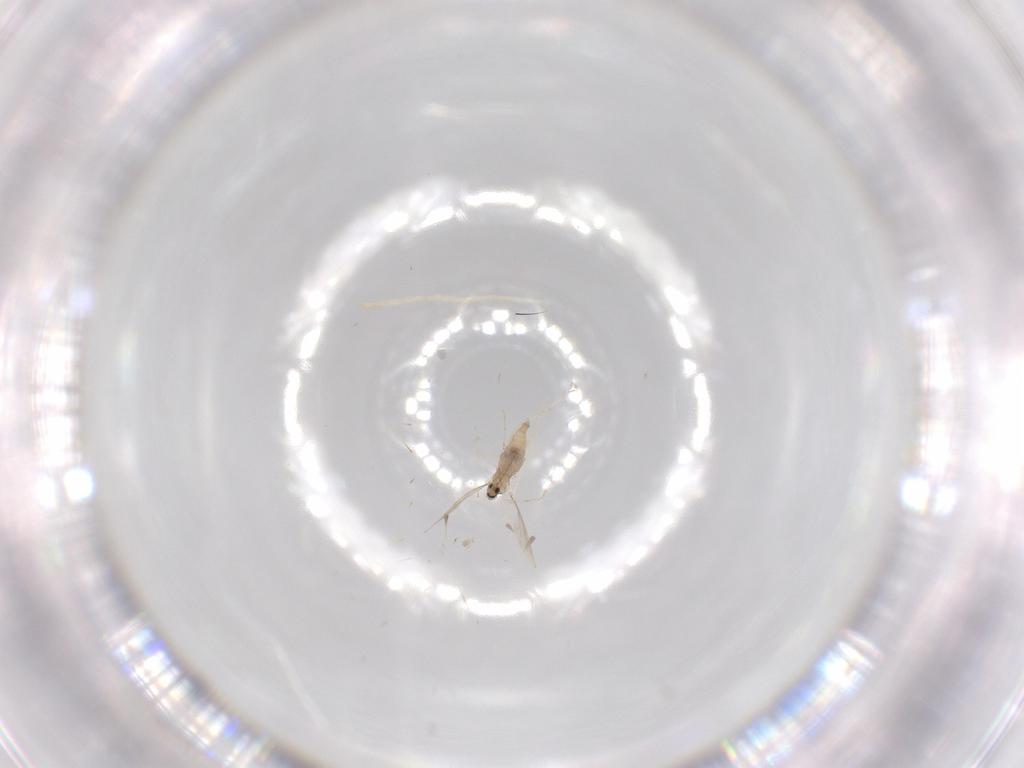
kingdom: Animalia
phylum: Arthropoda
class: Insecta
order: Diptera
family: Cecidomyiidae
